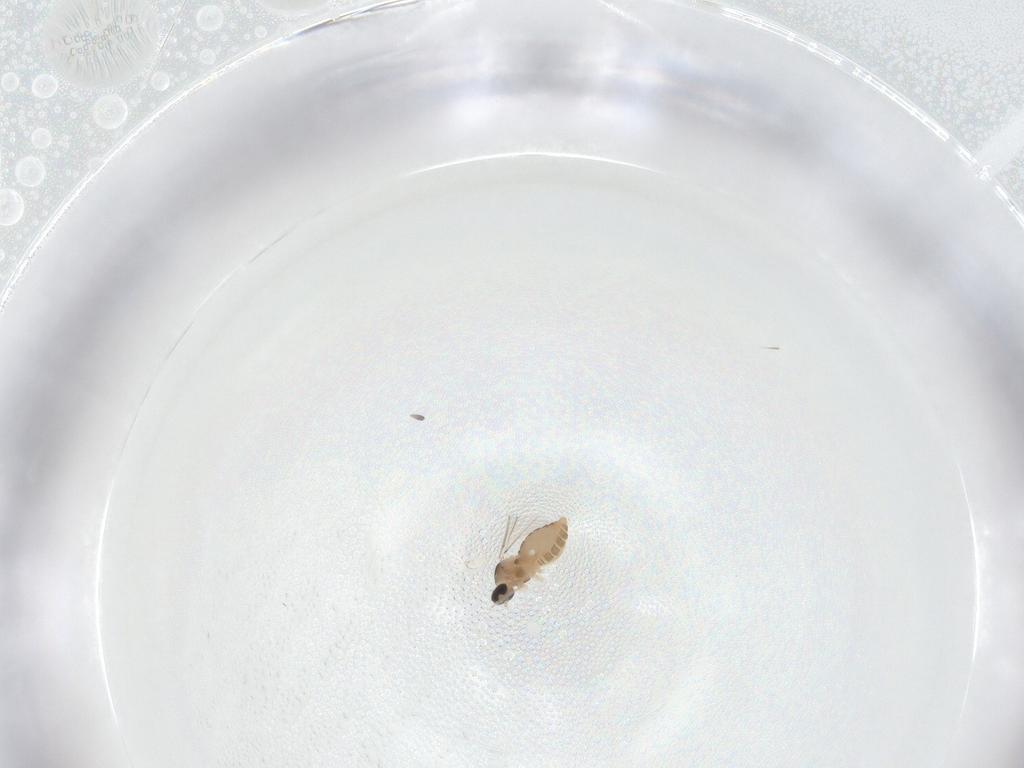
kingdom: Animalia
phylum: Arthropoda
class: Insecta
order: Diptera
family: Cecidomyiidae
